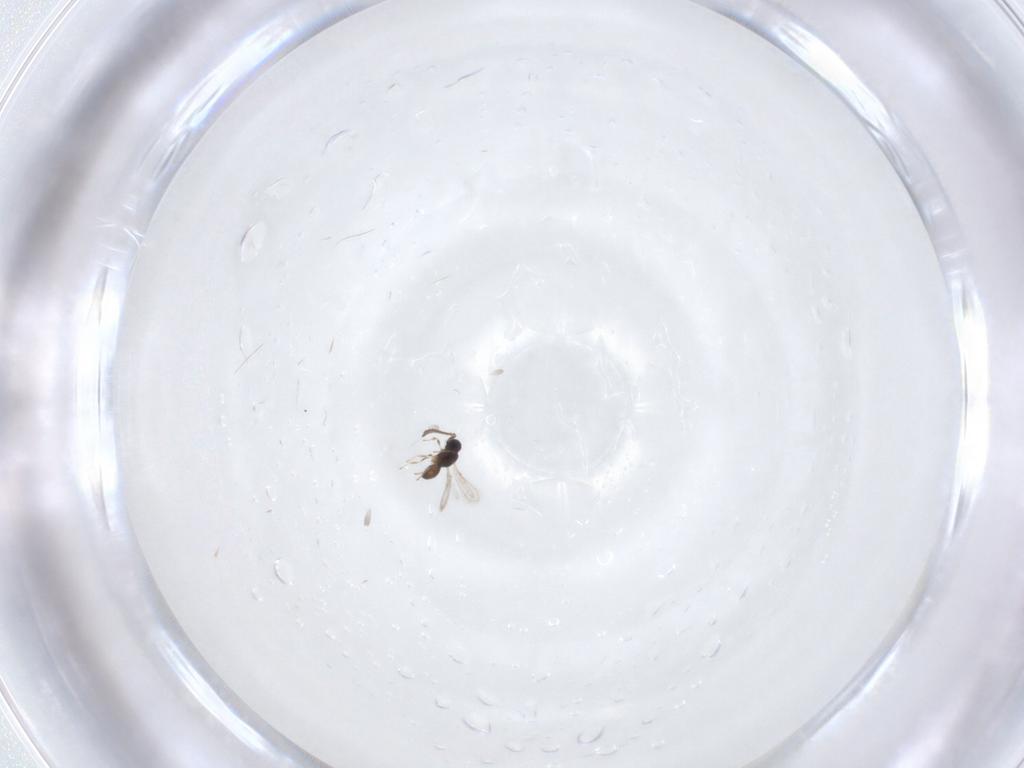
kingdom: Animalia
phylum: Arthropoda
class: Insecta
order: Hymenoptera
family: Scelionidae
